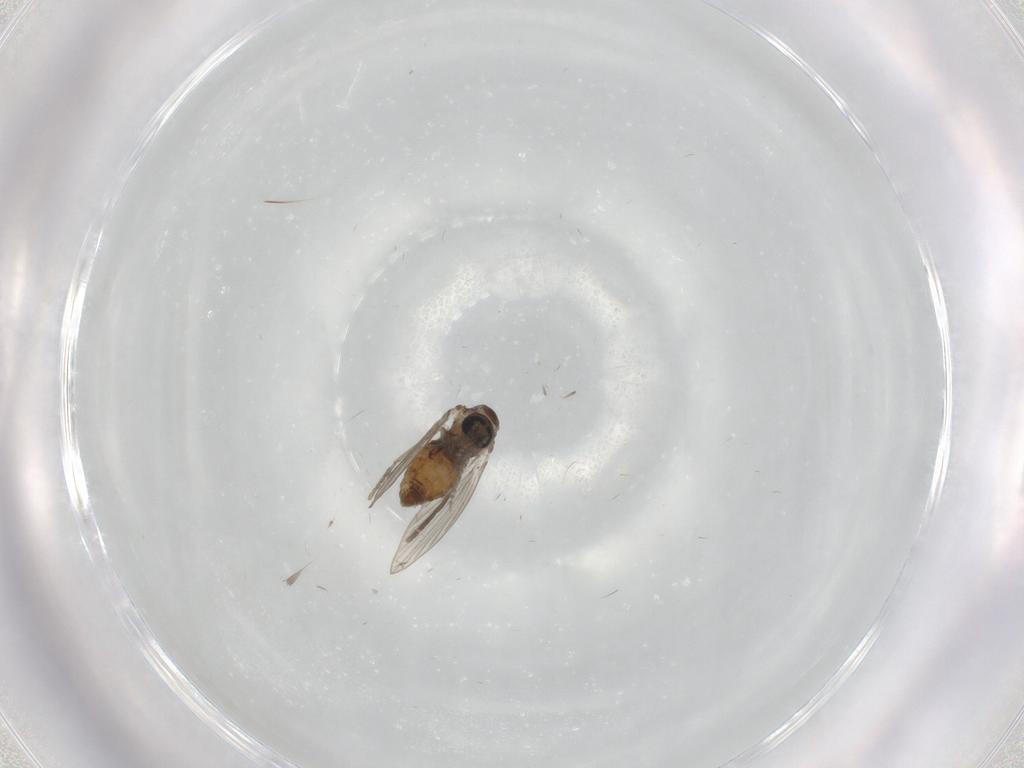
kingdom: Animalia
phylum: Arthropoda
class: Insecta
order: Diptera
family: Psychodidae
